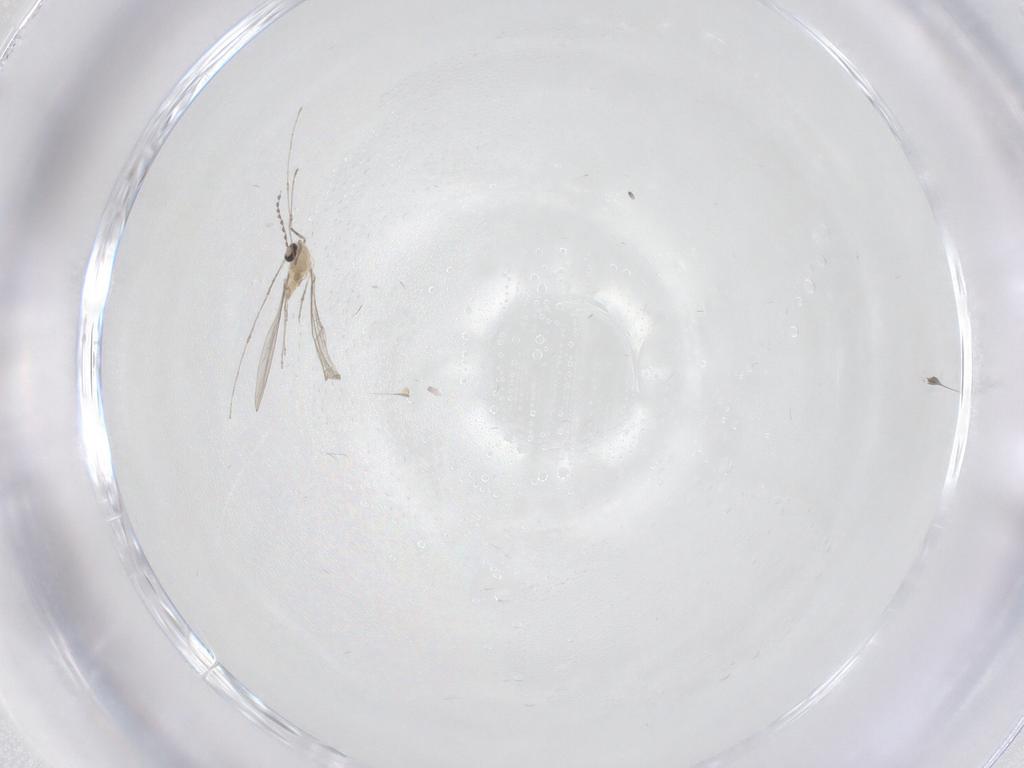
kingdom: Animalia
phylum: Arthropoda
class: Insecta
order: Diptera
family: Cecidomyiidae
